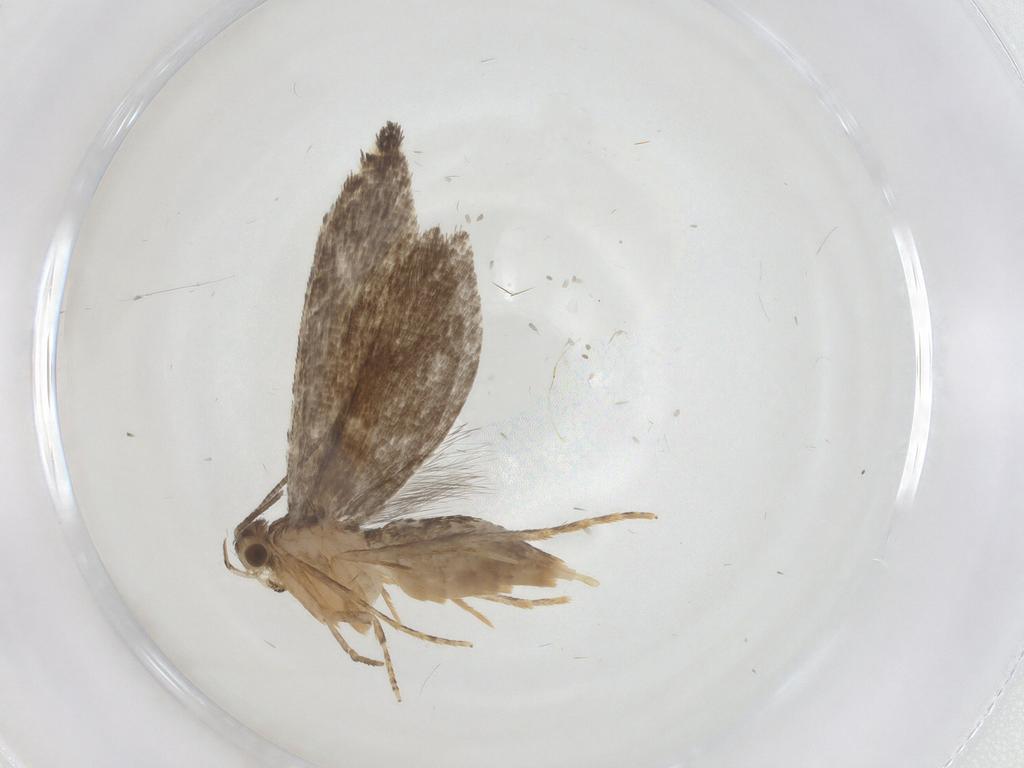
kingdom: Animalia
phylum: Arthropoda
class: Insecta
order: Lepidoptera
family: Tineidae
